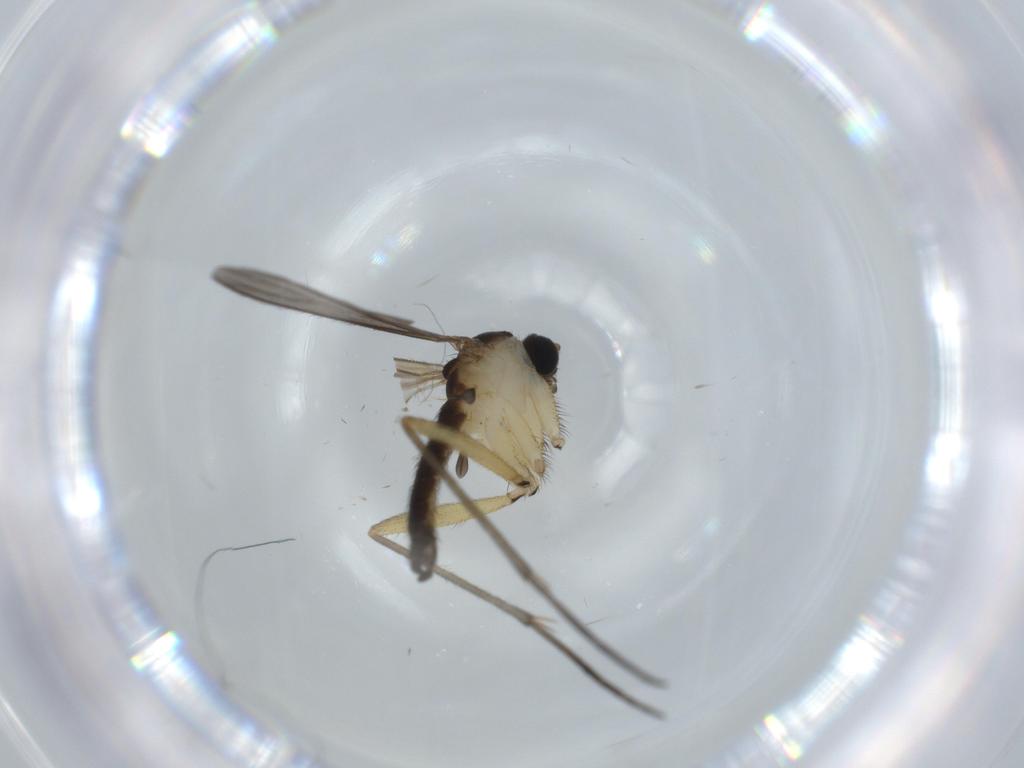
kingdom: Animalia
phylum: Arthropoda
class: Insecta
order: Diptera
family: Sciaridae
